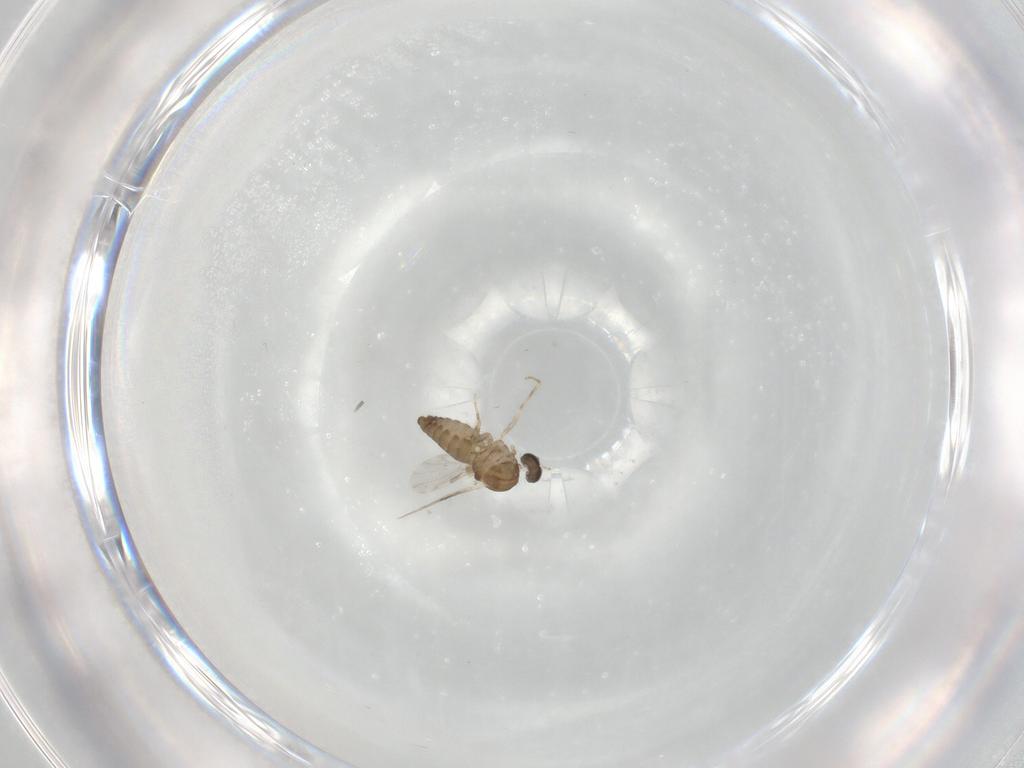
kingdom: Animalia
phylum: Arthropoda
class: Insecta
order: Diptera
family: Ceratopogonidae
